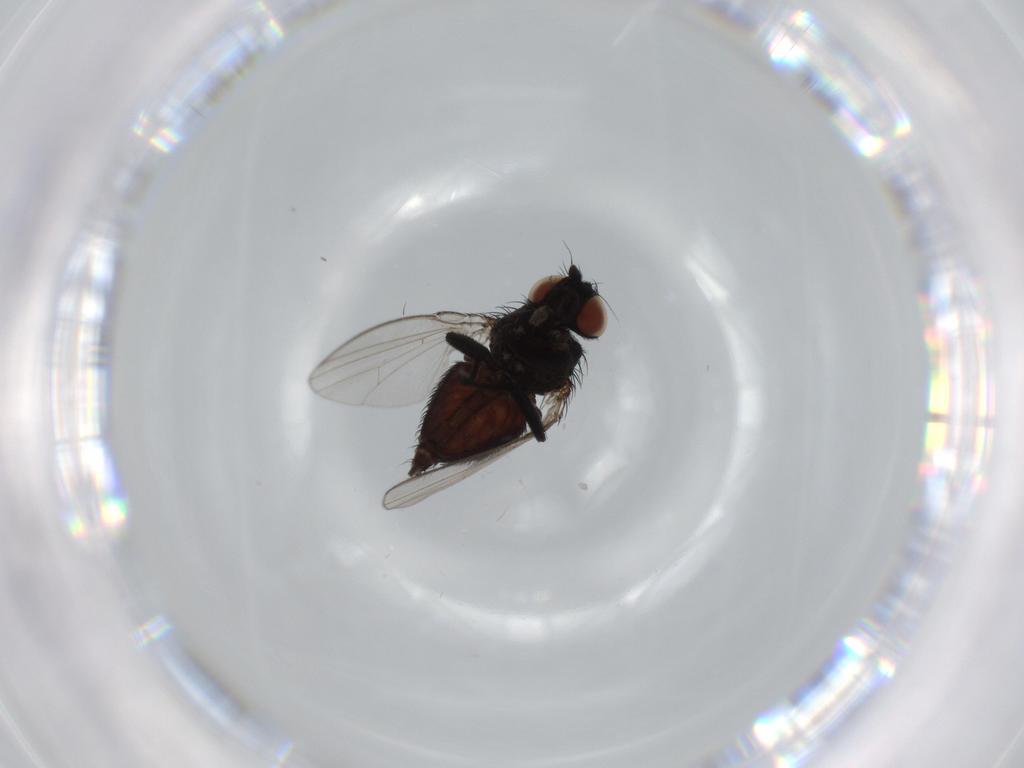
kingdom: Animalia
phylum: Arthropoda
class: Insecta
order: Diptera
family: Milichiidae
